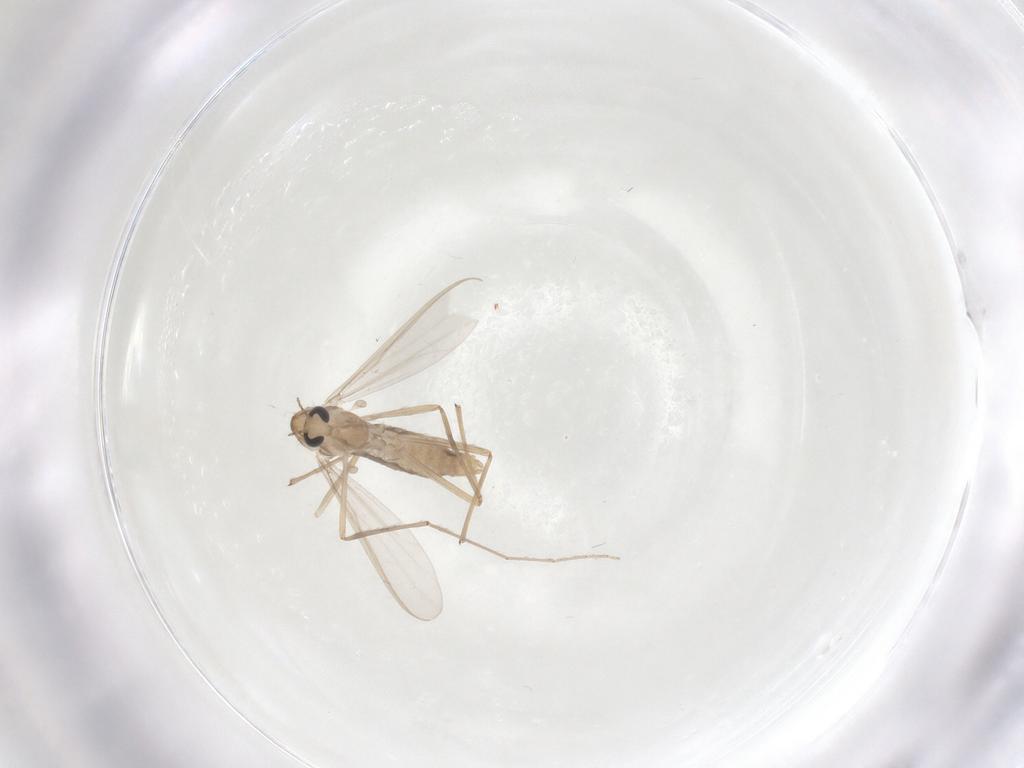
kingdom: Animalia
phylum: Arthropoda
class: Insecta
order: Diptera
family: Chironomidae
